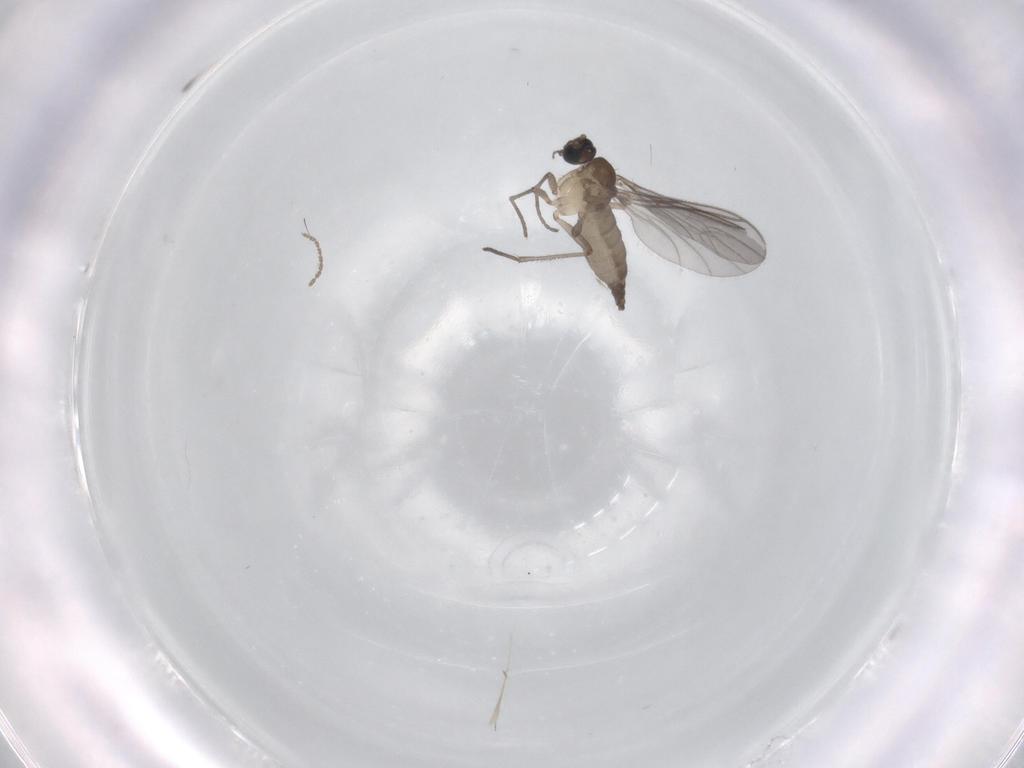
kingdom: Animalia
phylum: Arthropoda
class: Insecta
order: Diptera
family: Sciaridae
